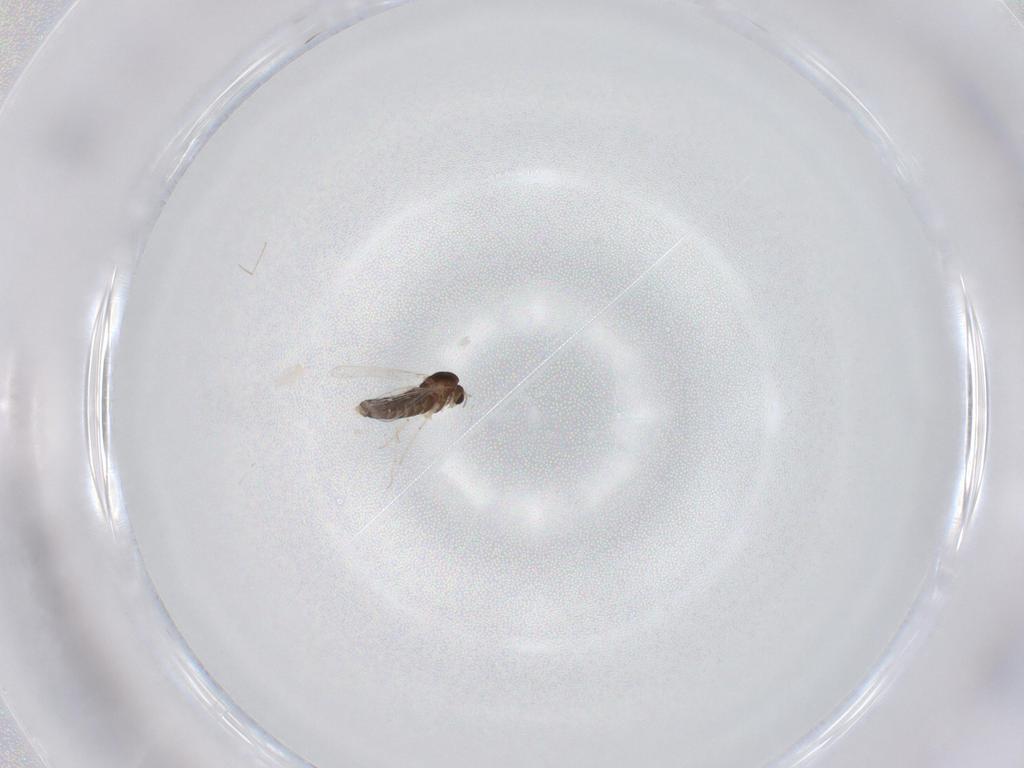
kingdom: Animalia
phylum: Arthropoda
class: Insecta
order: Diptera
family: Chironomidae
